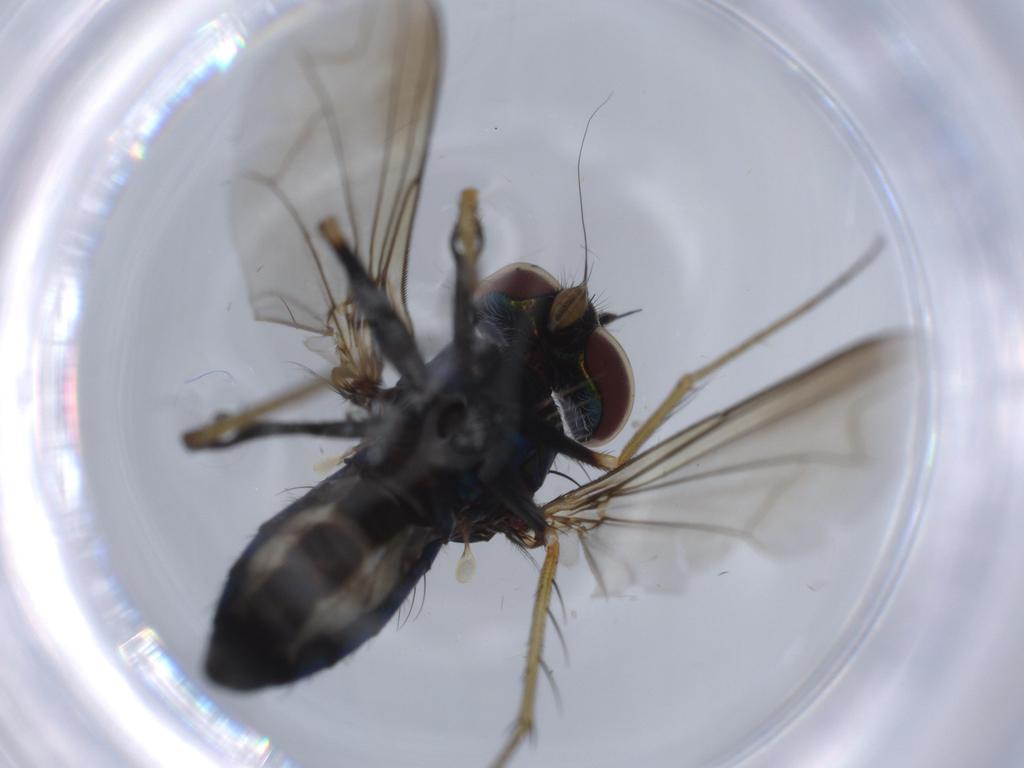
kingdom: Animalia
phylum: Arthropoda
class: Insecta
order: Diptera
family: Dolichopodidae
